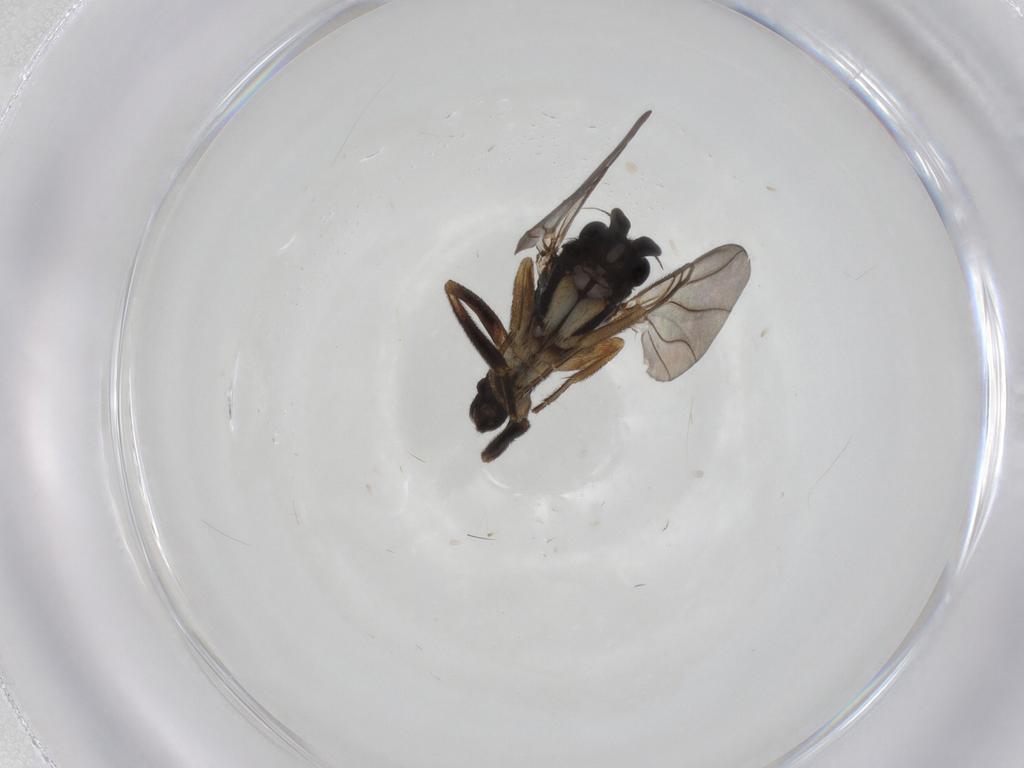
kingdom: Animalia
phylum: Arthropoda
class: Insecta
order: Diptera
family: Phoridae
